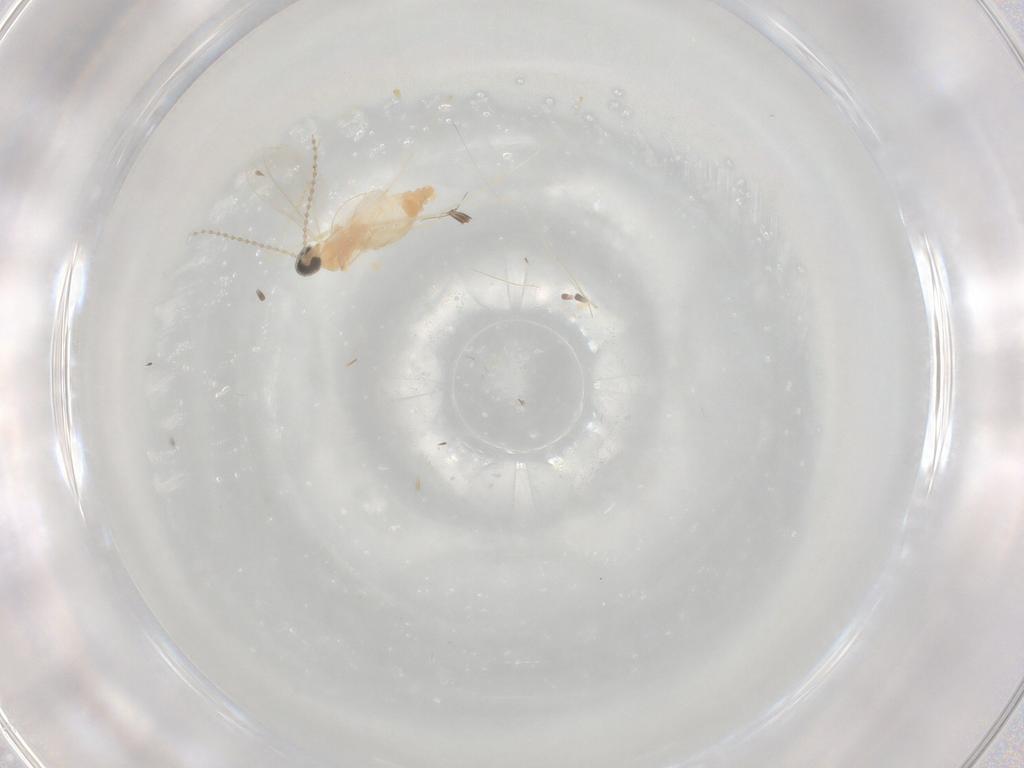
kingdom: Animalia
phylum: Arthropoda
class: Insecta
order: Diptera
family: Cecidomyiidae
